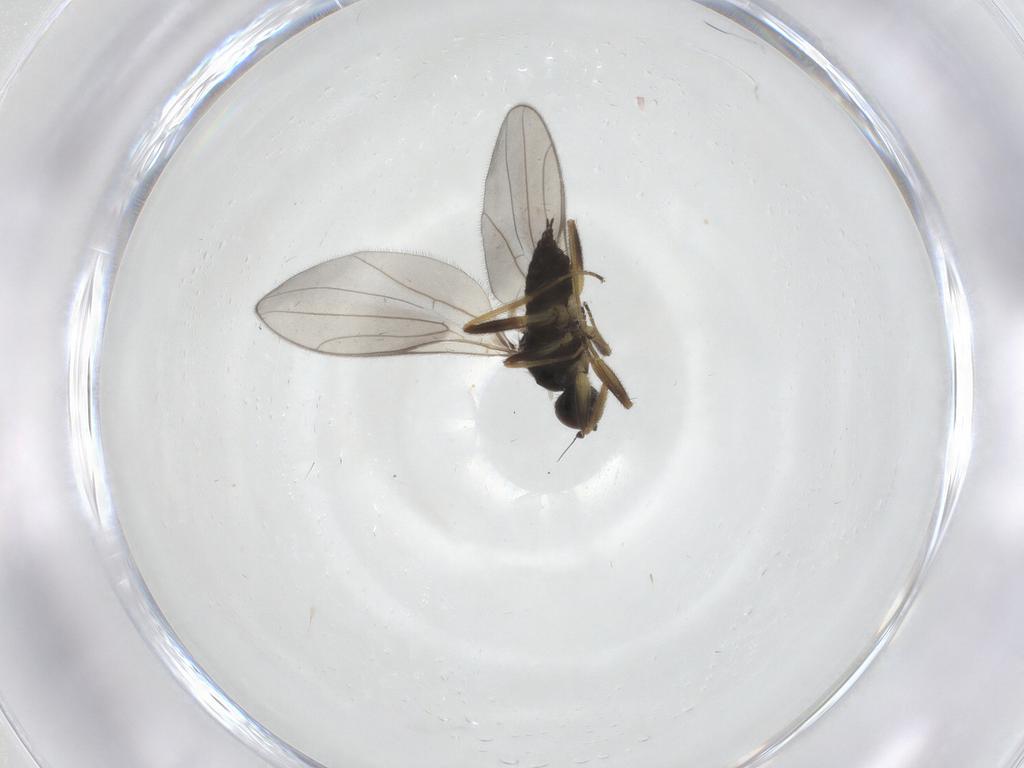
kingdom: Animalia
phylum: Arthropoda
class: Insecta
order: Diptera
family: Hybotidae
